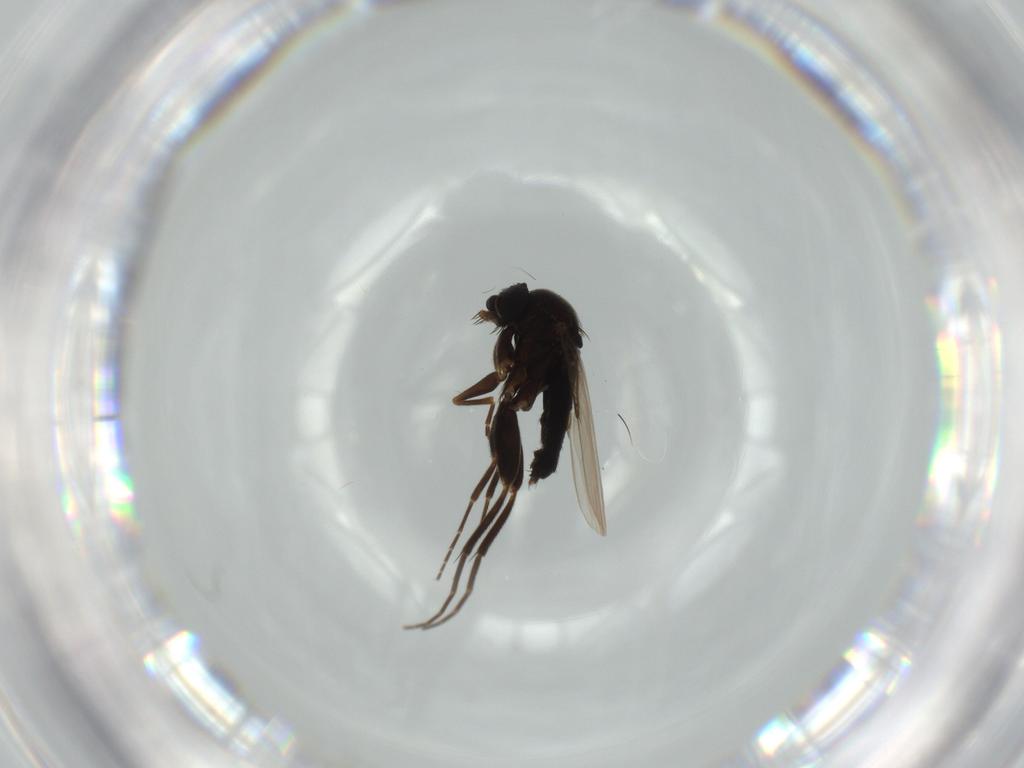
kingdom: Animalia
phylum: Arthropoda
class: Insecta
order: Diptera
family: Phoridae
